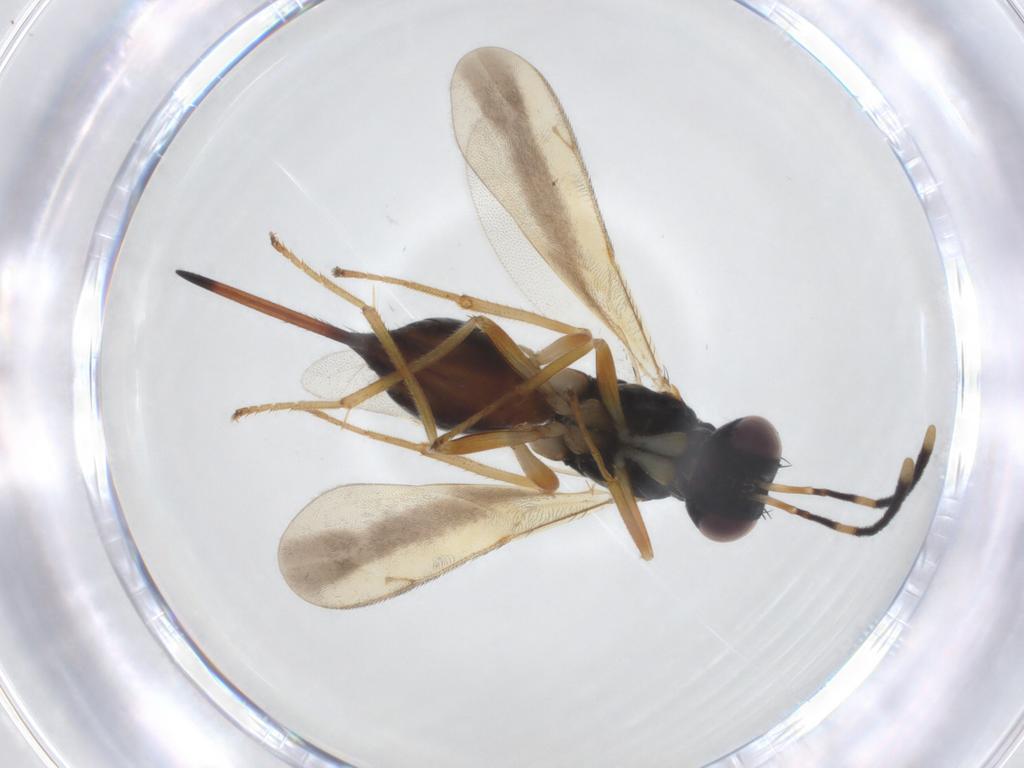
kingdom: Animalia
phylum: Arthropoda
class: Insecta
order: Hymenoptera
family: Vespidae
